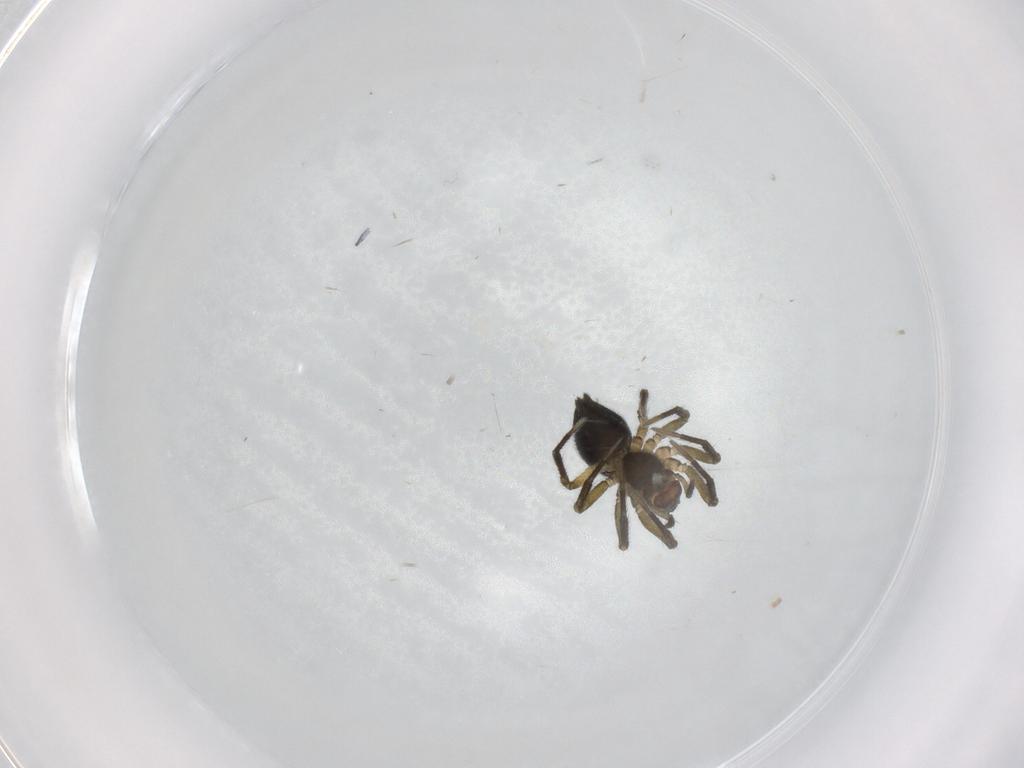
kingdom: Animalia
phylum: Arthropoda
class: Arachnida
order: Araneae
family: Linyphiidae
